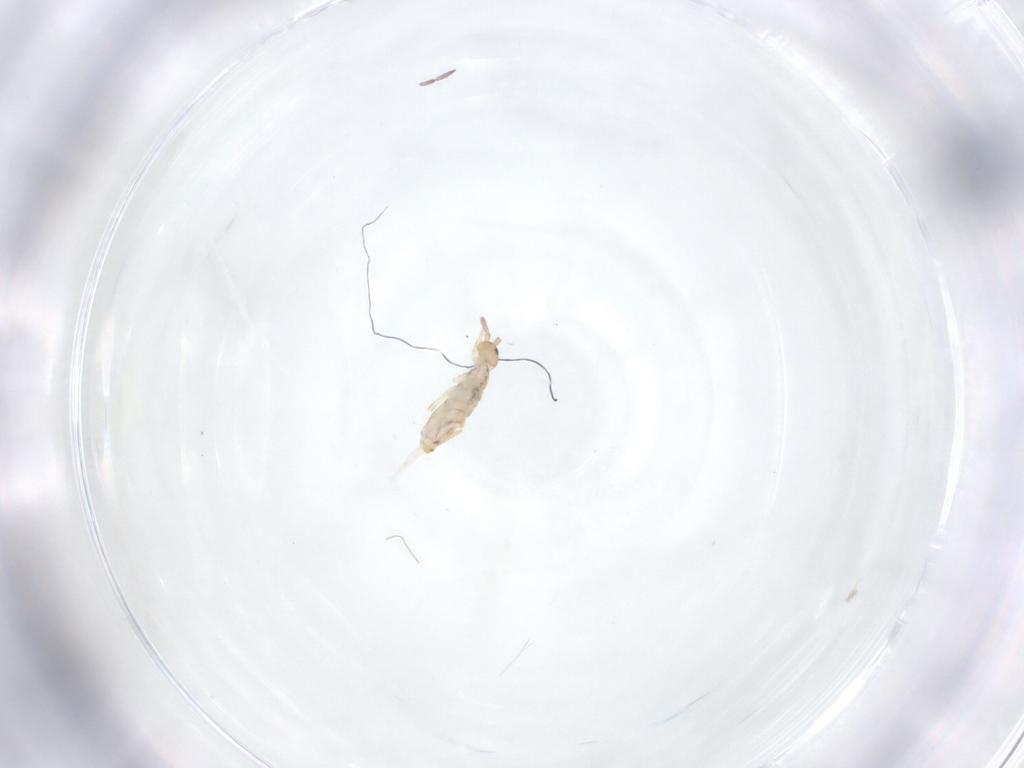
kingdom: Animalia
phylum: Arthropoda
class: Collembola
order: Entomobryomorpha
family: Entomobryidae
